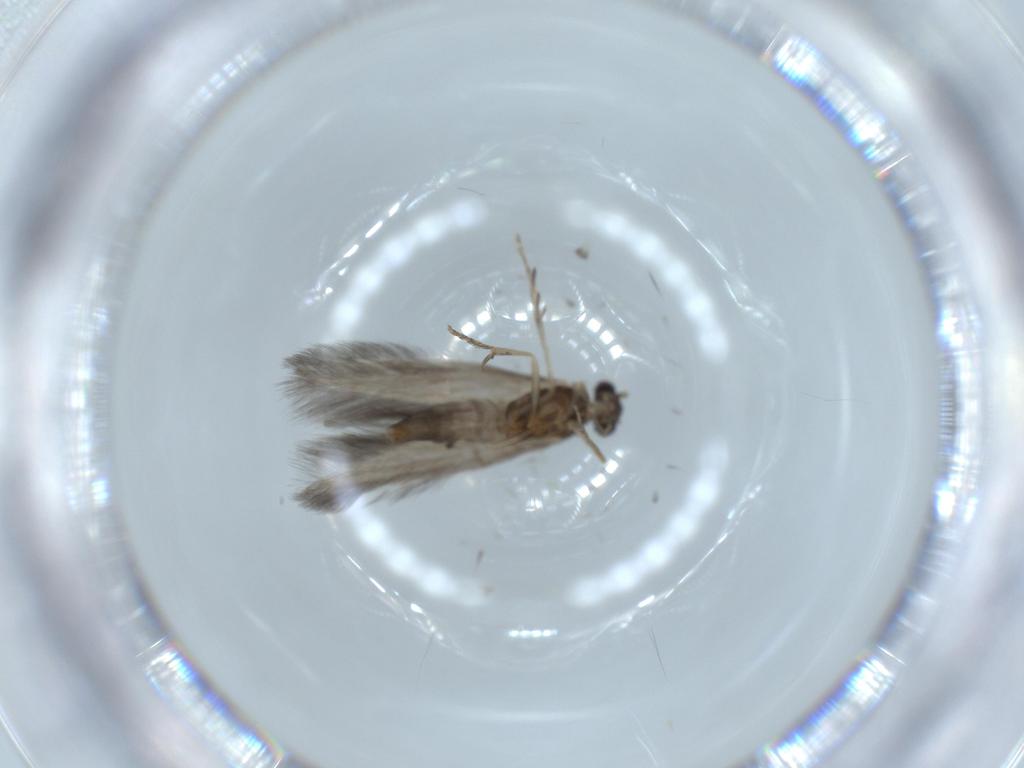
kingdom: Animalia
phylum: Arthropoda
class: Insecta
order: Trichoptera
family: Hydroptilidae
